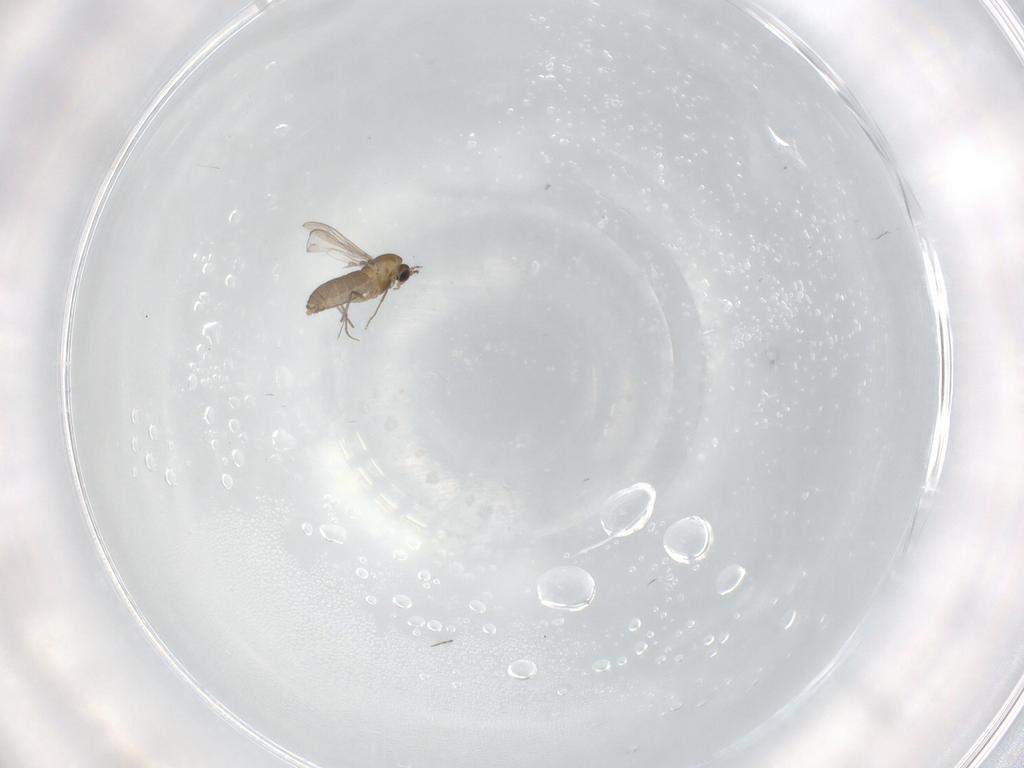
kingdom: Animalia
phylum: Arthropoda
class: Insecta
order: Diptera
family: Chironomidae
